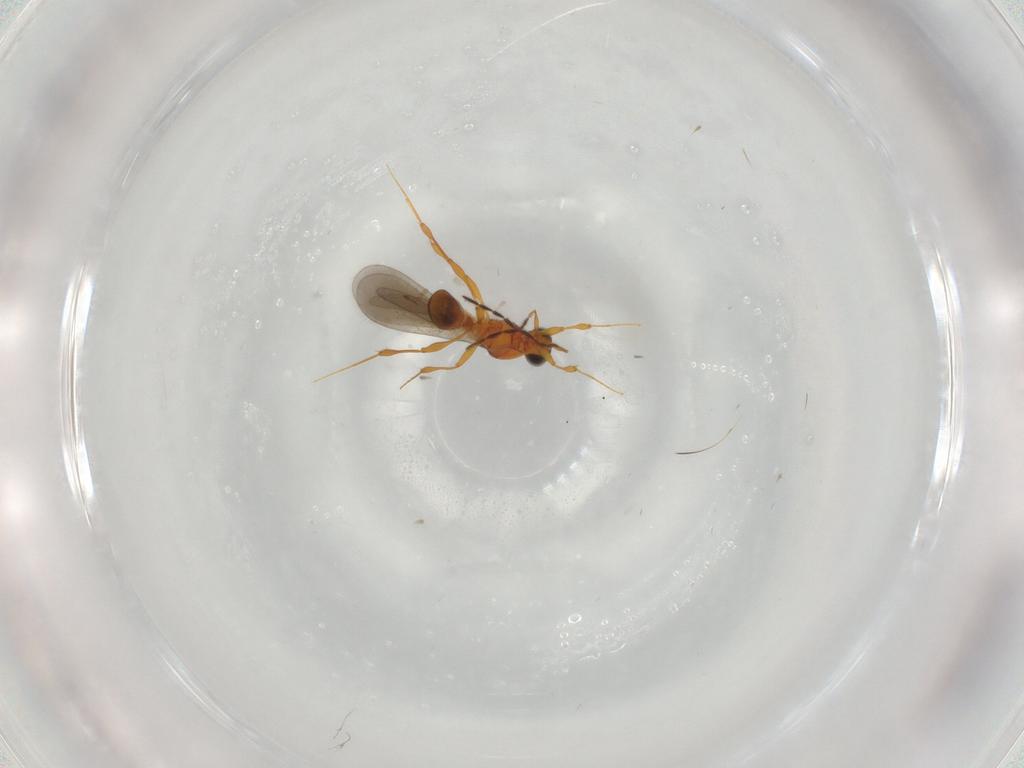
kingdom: Animalia
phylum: Arthropoda
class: Insecta
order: Hymenoptera
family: Platygastridae
